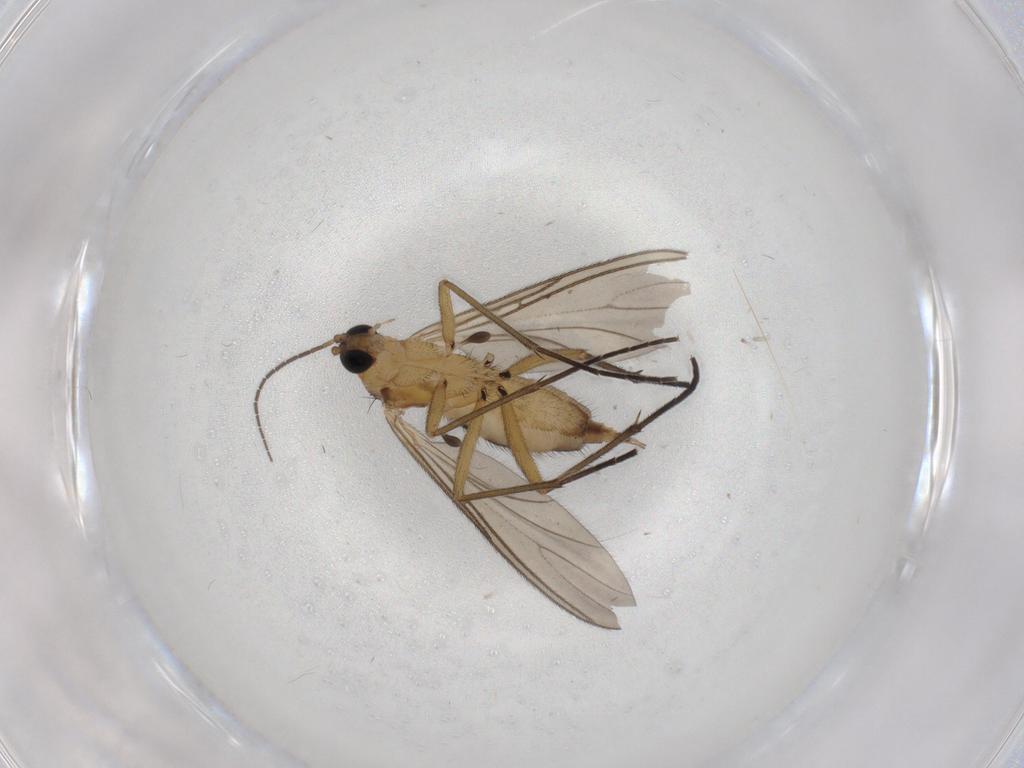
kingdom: Animalia
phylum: Arthropoda
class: Insecta
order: Diptera
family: Sciaridae
